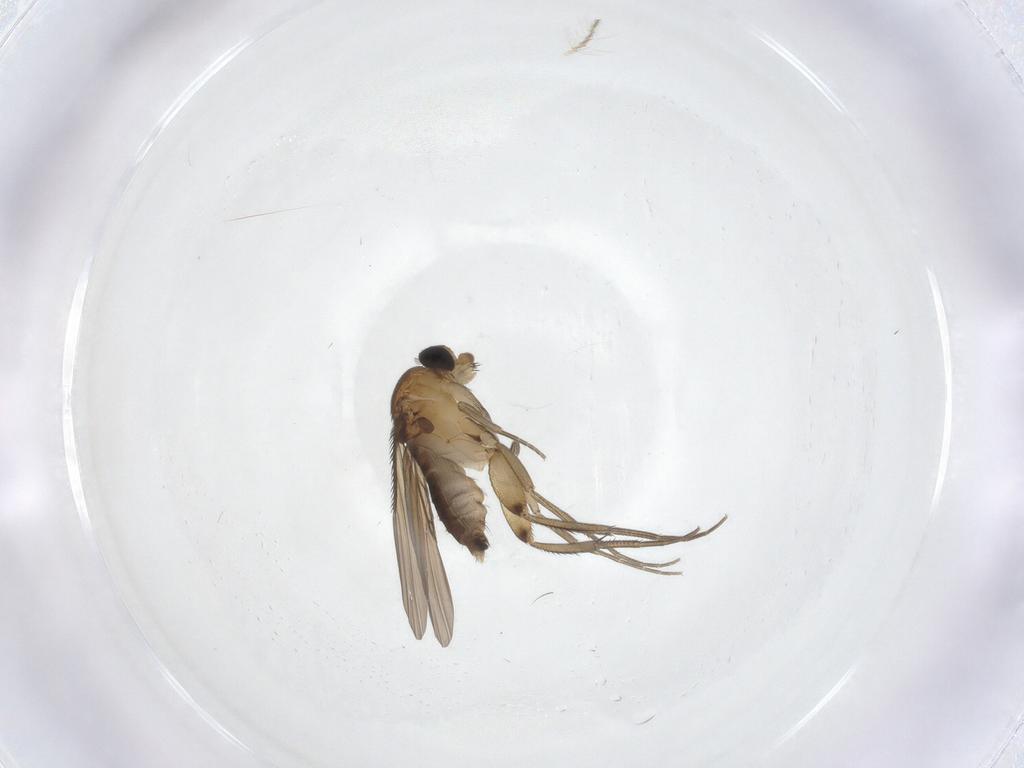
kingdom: Animalia
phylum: Arthropoda
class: Insecta
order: Diptera
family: Phoridae
